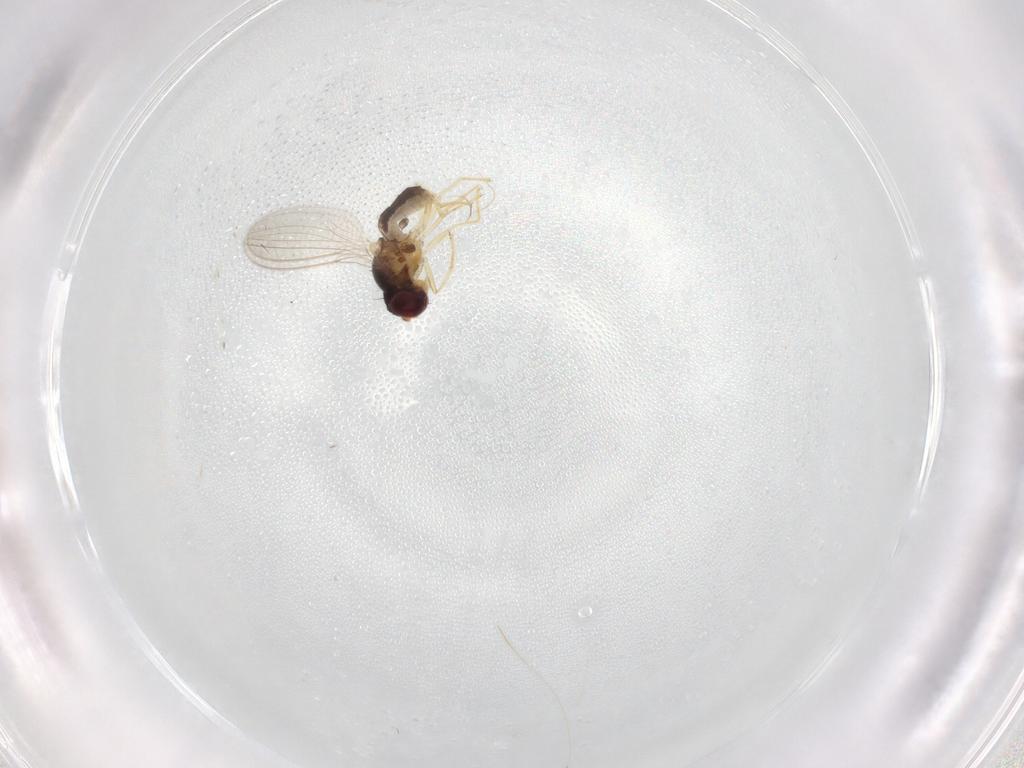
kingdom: Animalia
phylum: Arthropoda
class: Insecta
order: Diptera
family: Asteiidae
